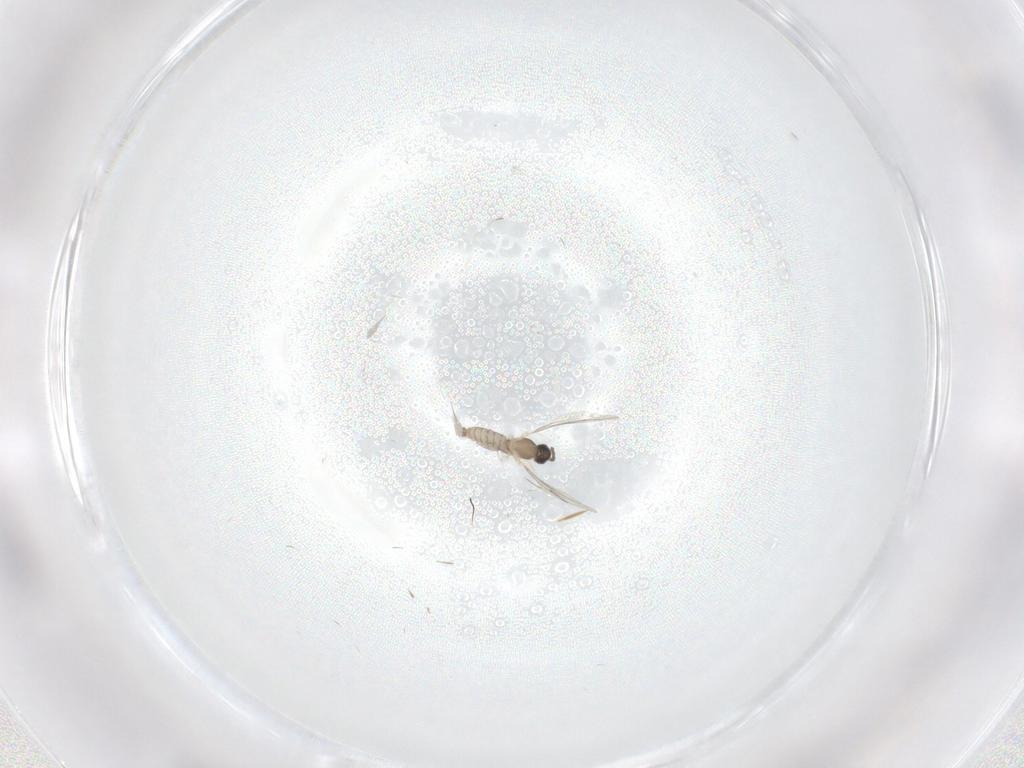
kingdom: Animalia
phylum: Arthropoda
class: Insecta
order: Diptera
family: Cecidomyiidae
